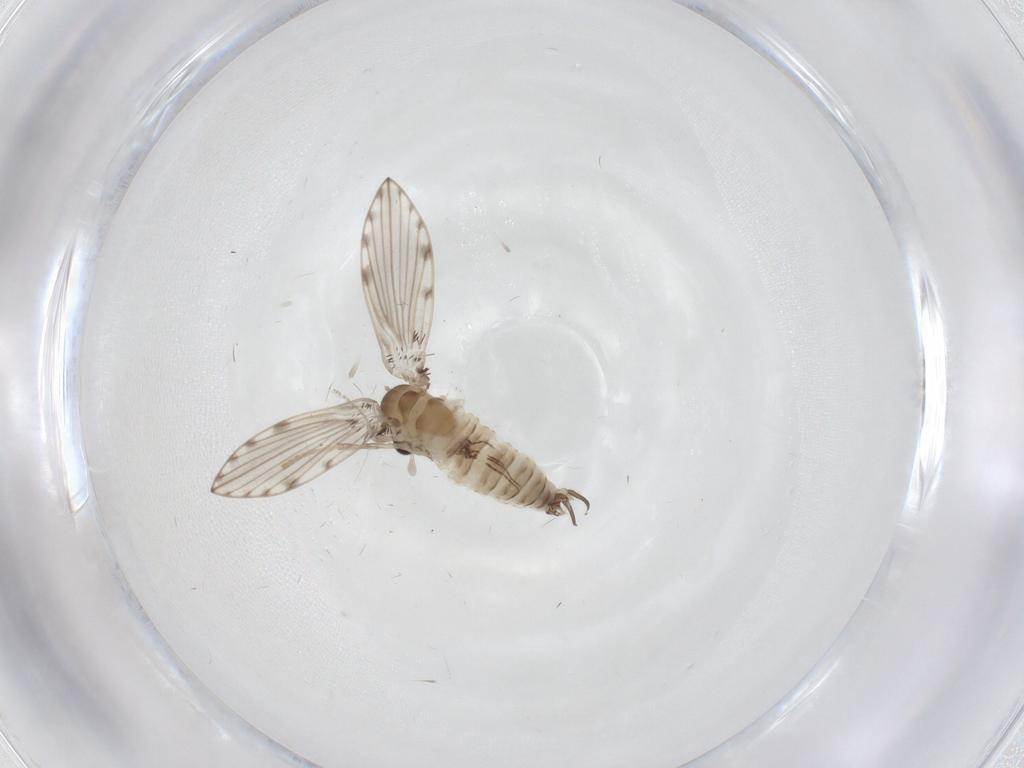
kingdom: Animalia
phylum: Arthropoda
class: Insecta
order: Diptera
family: Psychodidae
